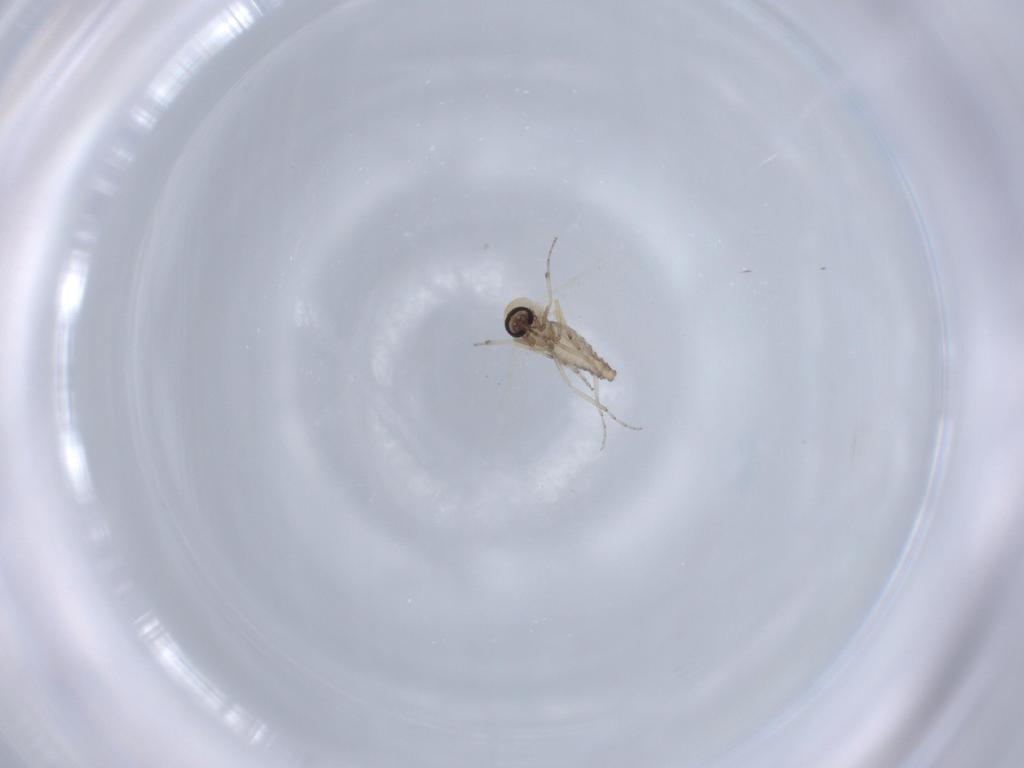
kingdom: Animalia
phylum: Arthropoda
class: Insecta
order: Diptera
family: Ceratopogonidae
